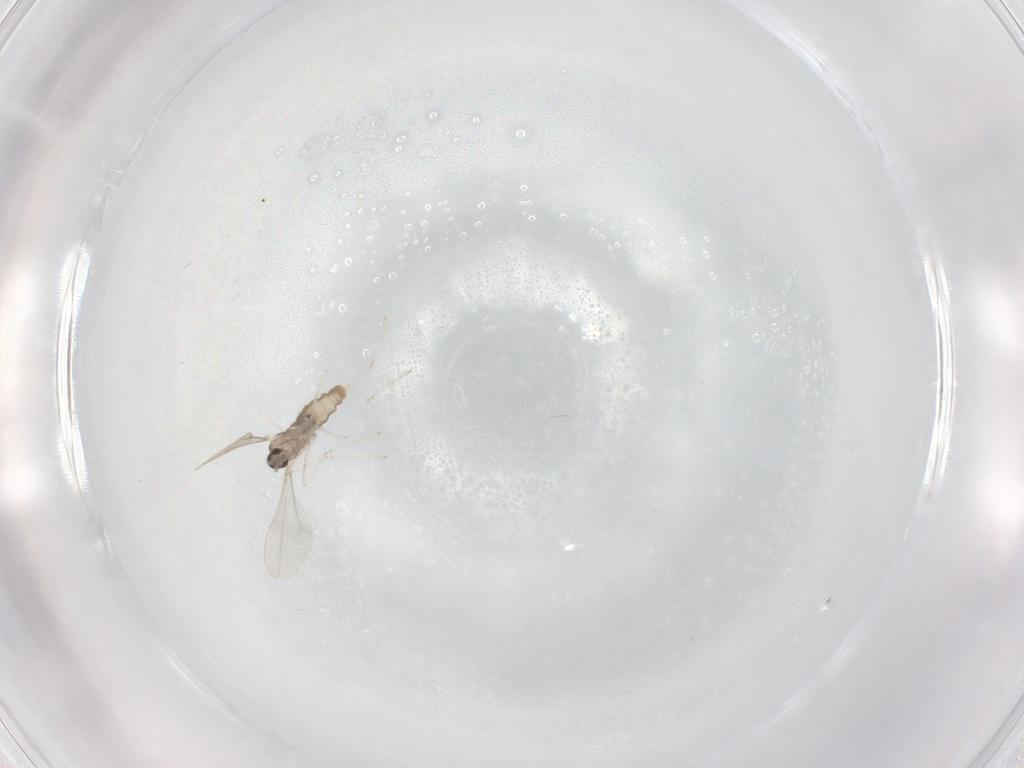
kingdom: Animalia
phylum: Arthropoda
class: Insecta
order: Diptera
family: Cecidomyiidae
